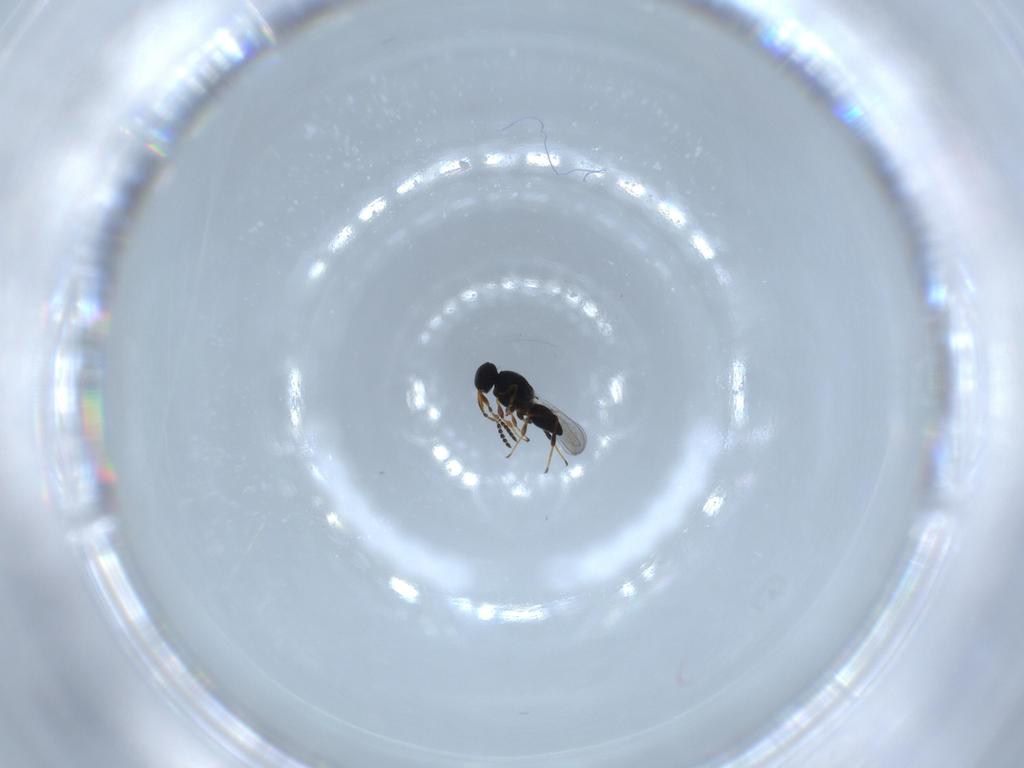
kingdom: Animalia
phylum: Arthropoda
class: Insecta
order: Hymenoptera
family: Platygastridae
